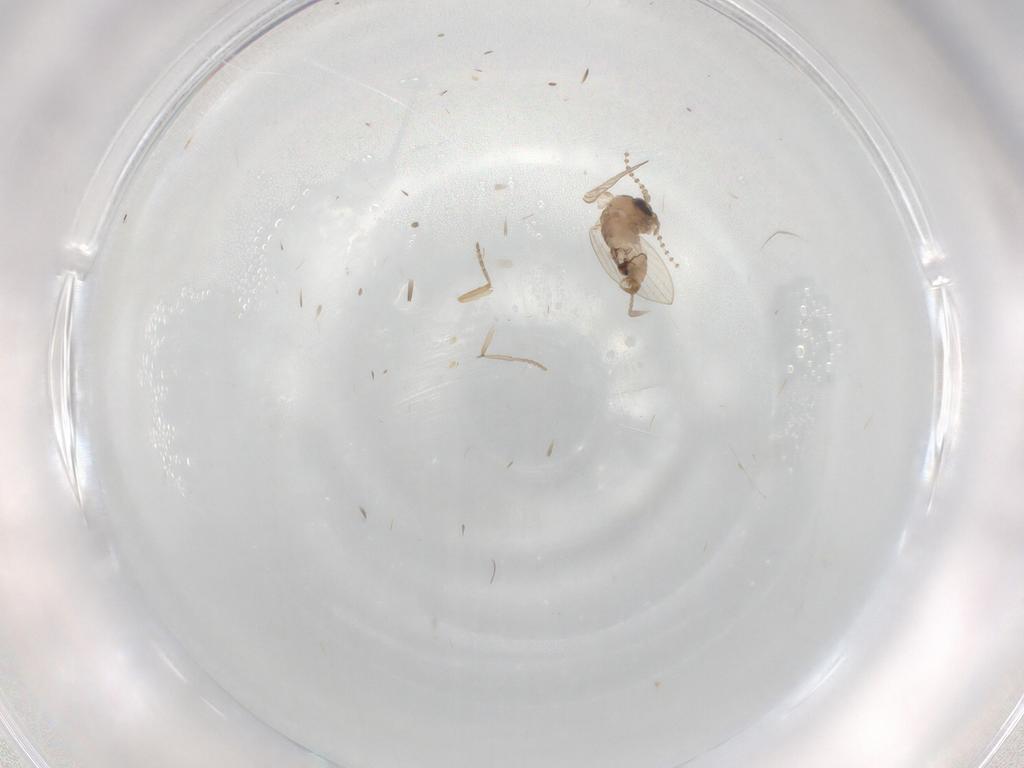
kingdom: Animalia
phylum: Arthropoda
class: Insecta
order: Diptera
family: Psychodidae
